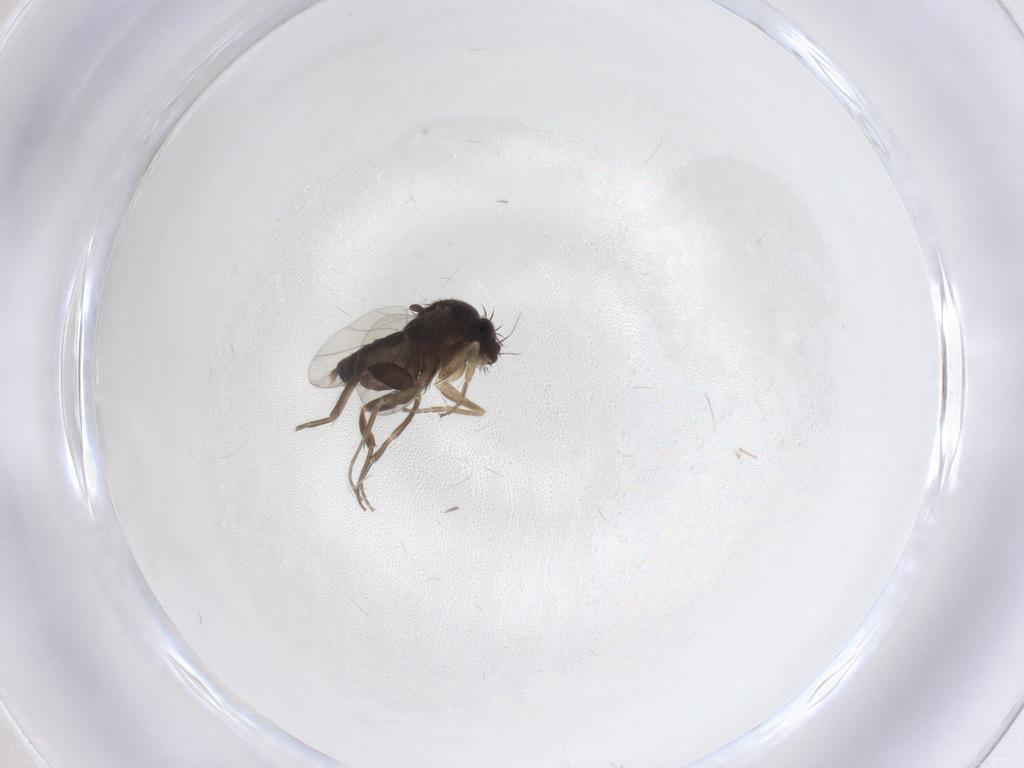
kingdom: Animalia
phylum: Arthropoda
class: Insecta
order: Diptera
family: Phoridae
